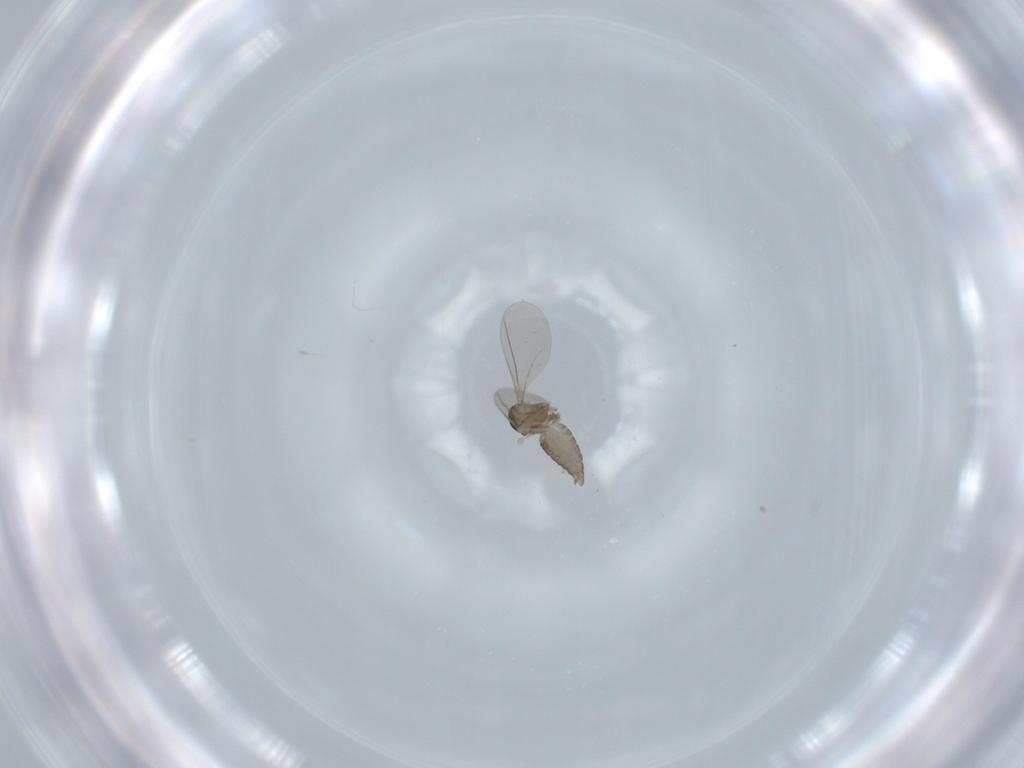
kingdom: Animalia
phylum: Arthropoda
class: Insecta
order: Diptera
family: Cecidomyiidae
